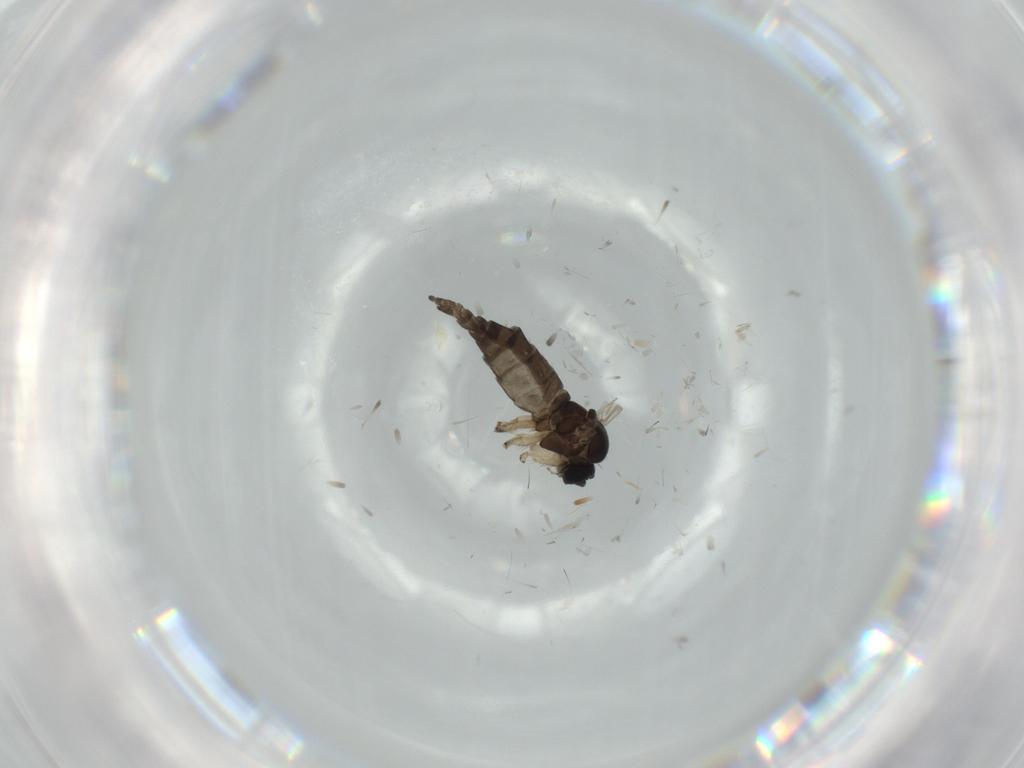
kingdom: Animalia
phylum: Arthropoda
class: Insecta
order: Diptera
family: Sciaridae
